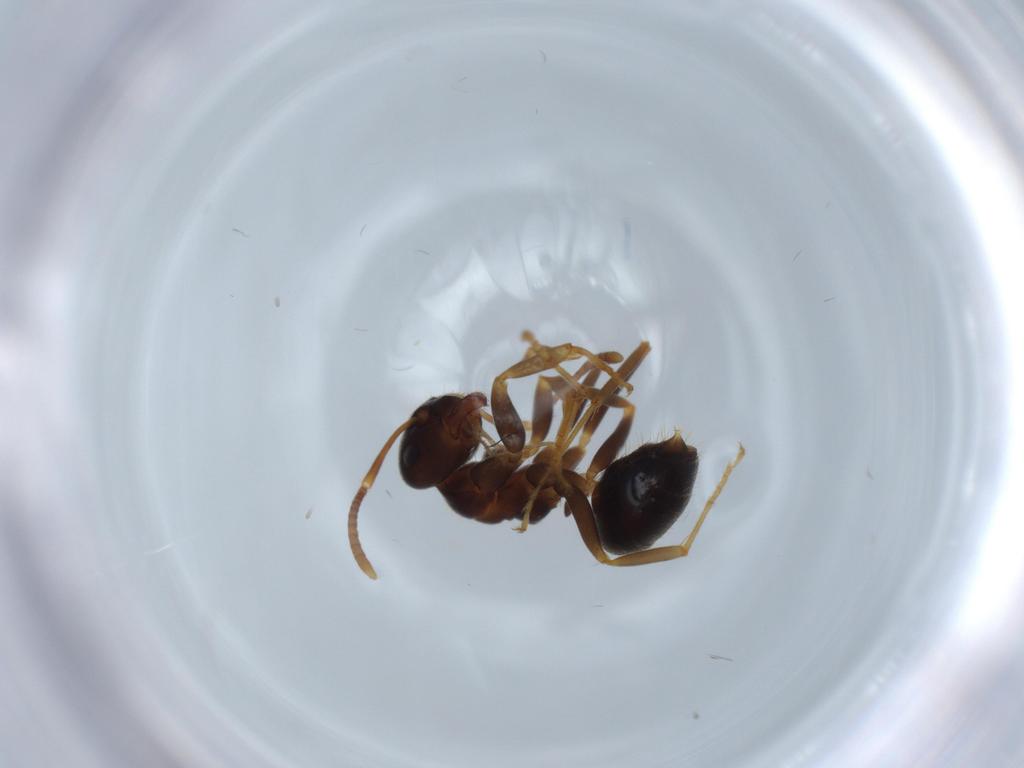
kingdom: Animalia
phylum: Arthropoda
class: Insecta
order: Hymenoptera
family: Formicidae
